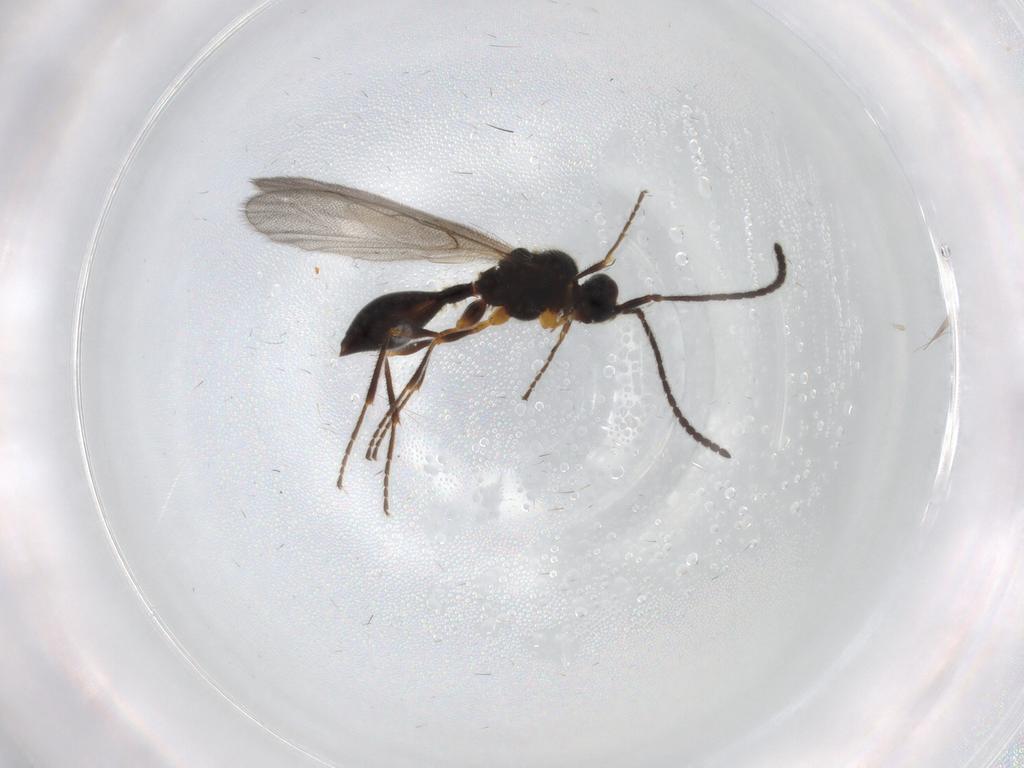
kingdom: Animalia
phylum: Arthropoda
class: Insecta
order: Hymenoptera
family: Diapriidae
